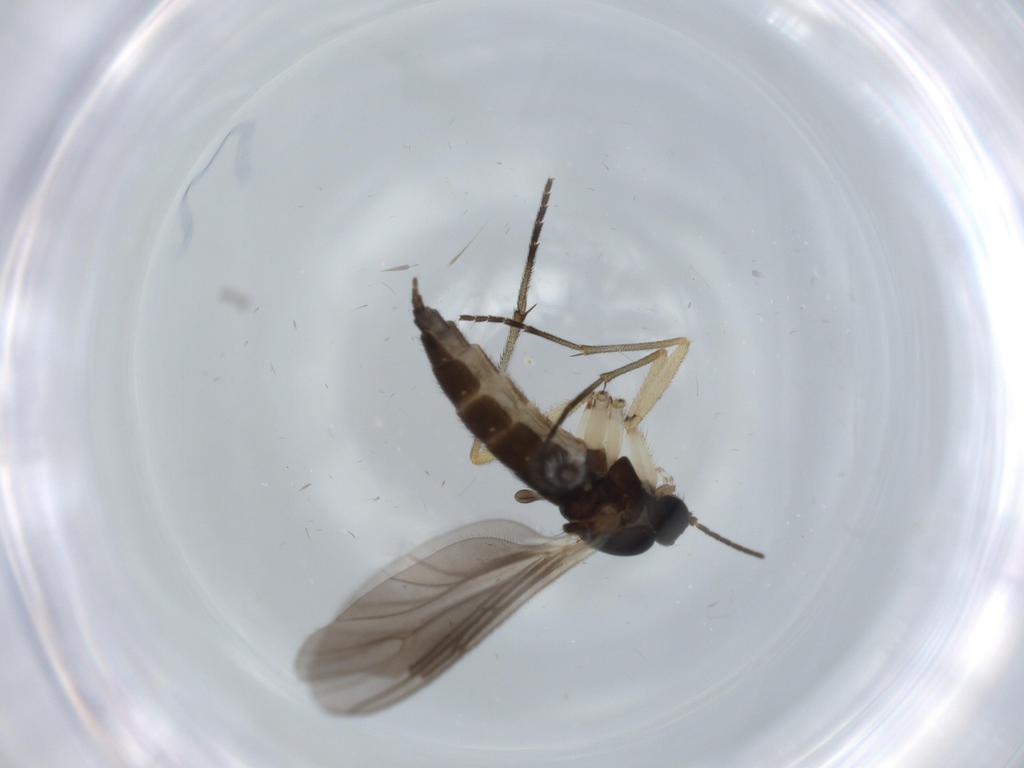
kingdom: Animalia
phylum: Arthropoda
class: Insecta
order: Diptera
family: Sciaridae
